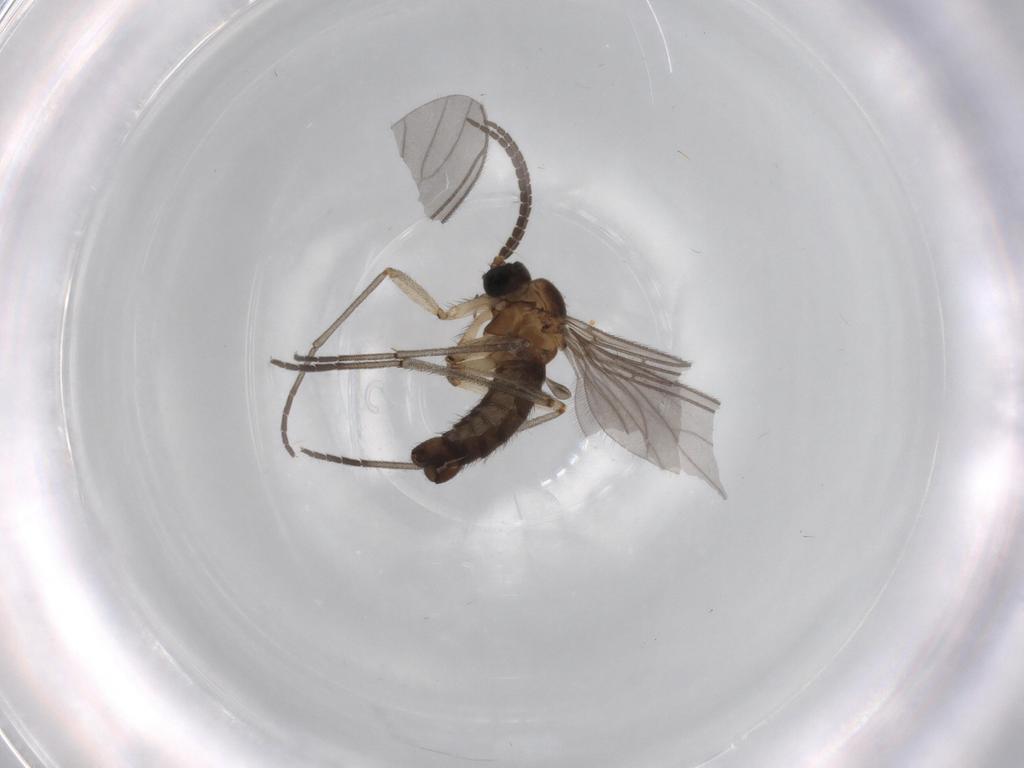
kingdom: Animalia
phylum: Arthropoda
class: Insecta
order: Diptera
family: Sciaridae
